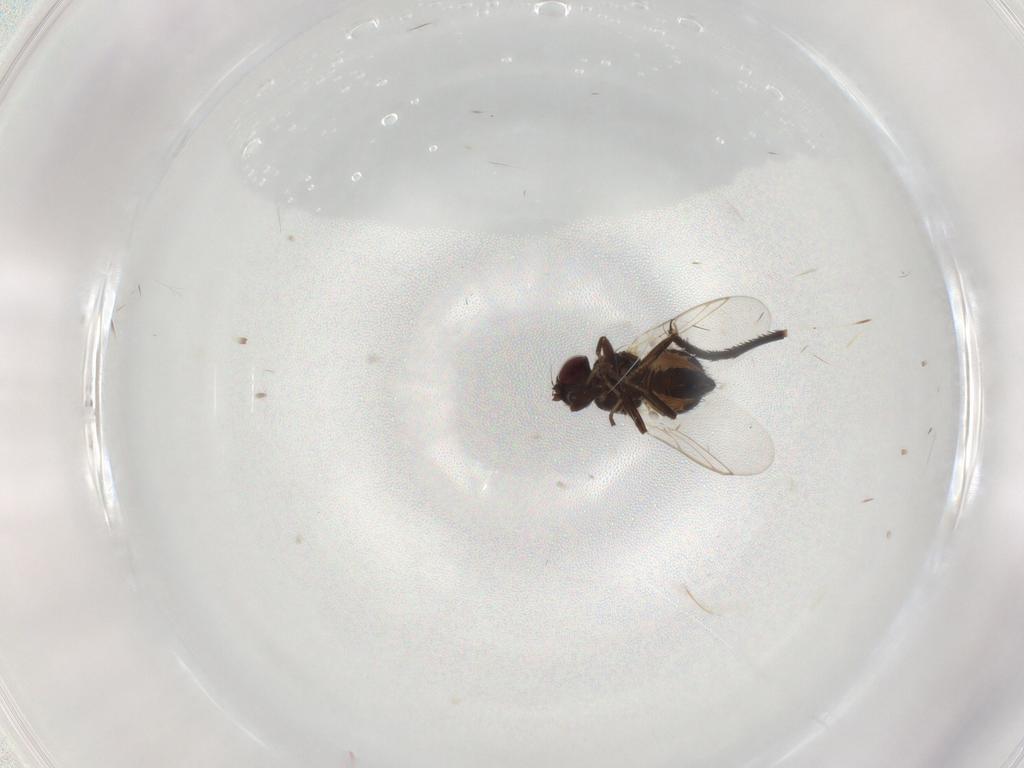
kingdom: Animalia
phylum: Arthropoda
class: Insecta
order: Diptera
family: Muscidae
